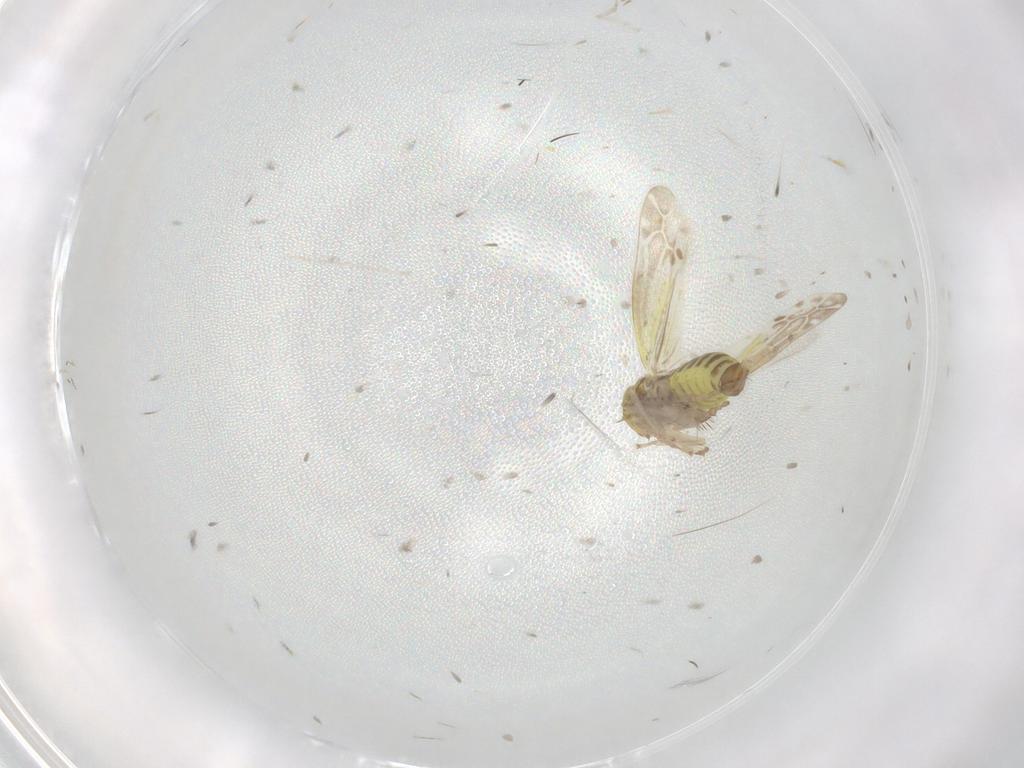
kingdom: Animalia
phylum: Arthropoda
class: Insecta
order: Hemiptera
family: Cicadellidae
